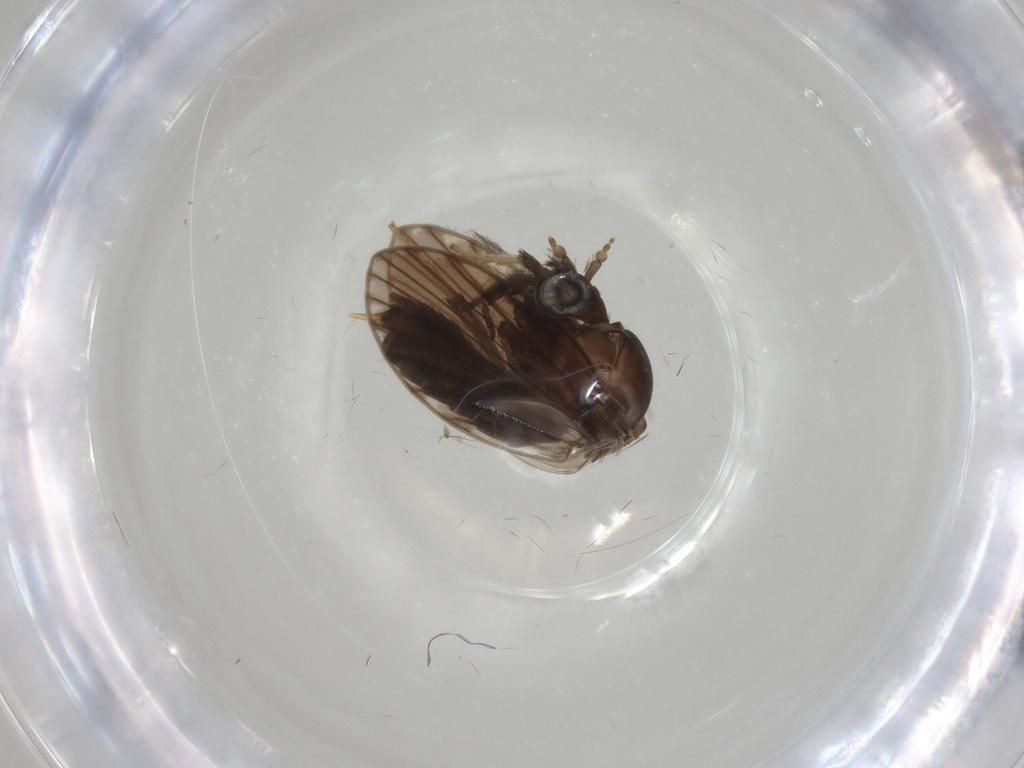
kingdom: Animalia
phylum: Arthropoda
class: Insecta
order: Diptera
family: Psychodidae
